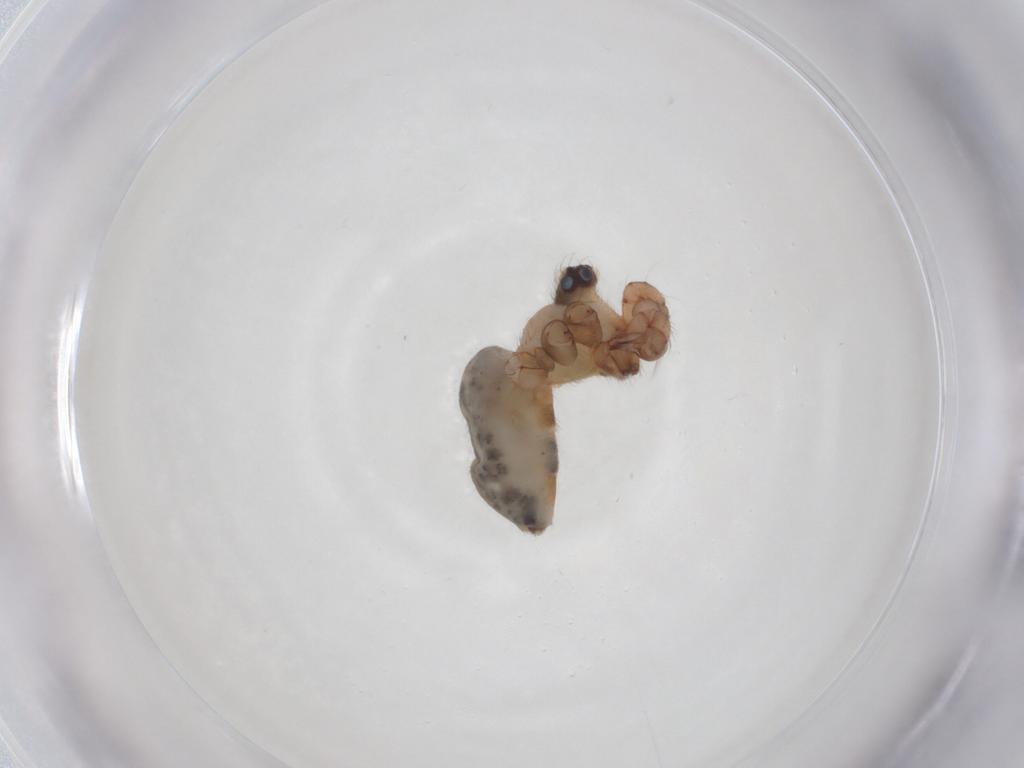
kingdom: Animalia
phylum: Arthropoda
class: Arachnida
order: Araneae
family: Pholcidae
